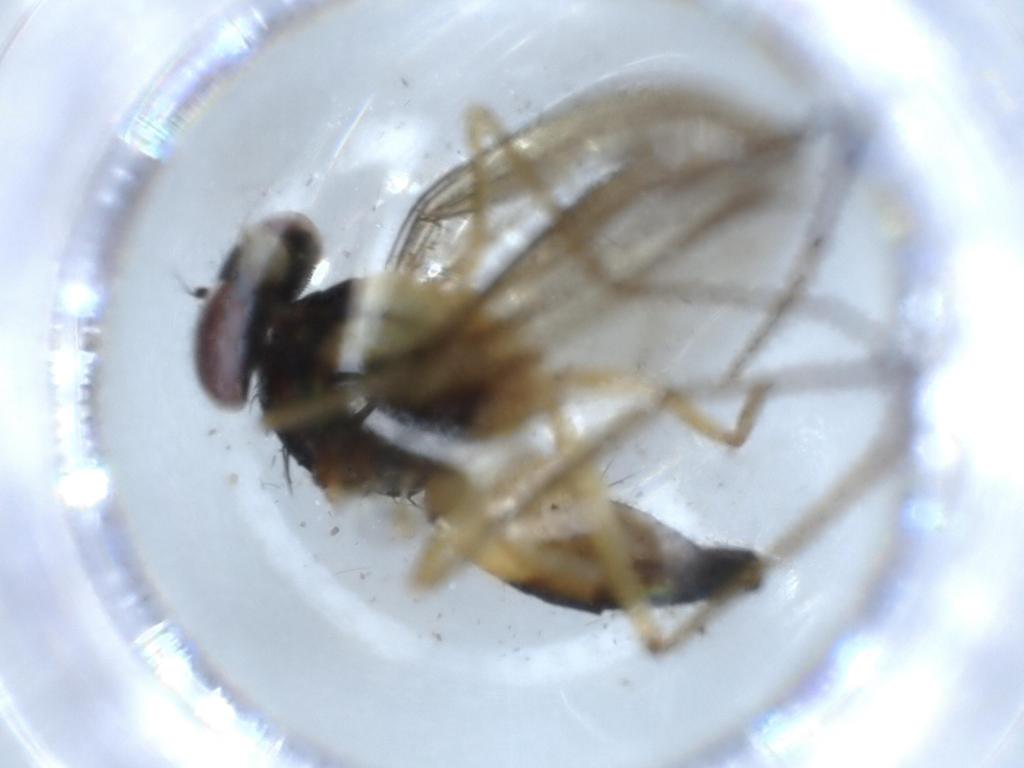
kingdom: Animalia
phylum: Arthropoda
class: Insecta
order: Diptera
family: Dolichopodidae
